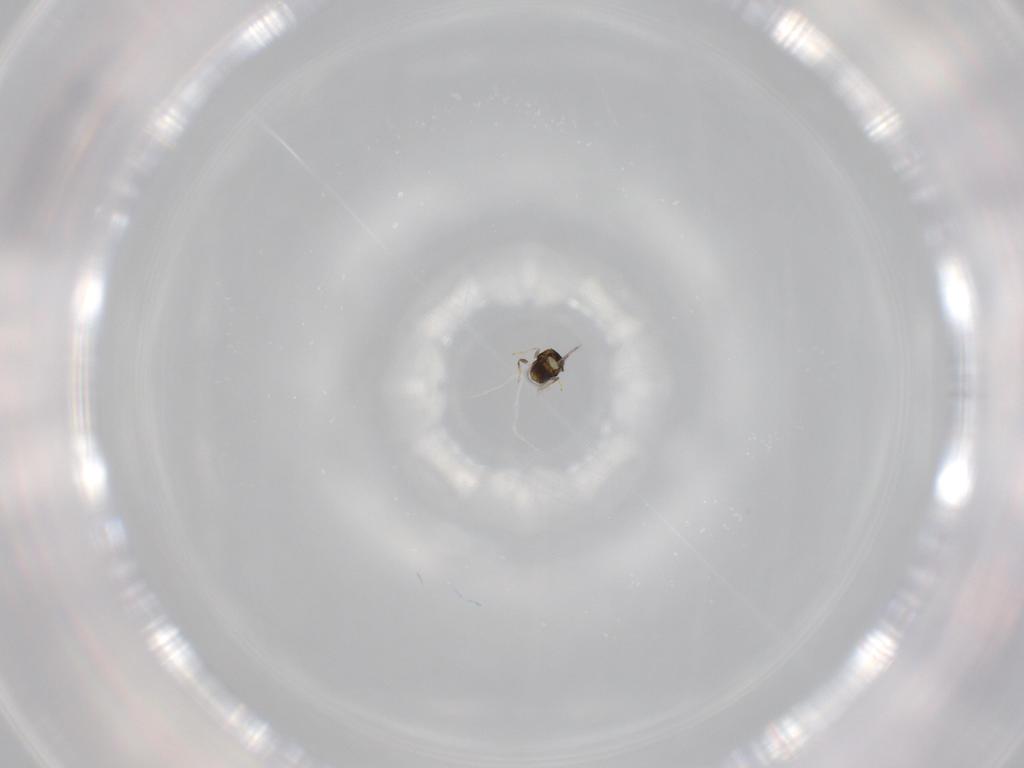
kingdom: Animalia
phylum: Arthropoda
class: Insecta
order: Hymenoptera
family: Aphelinidae
